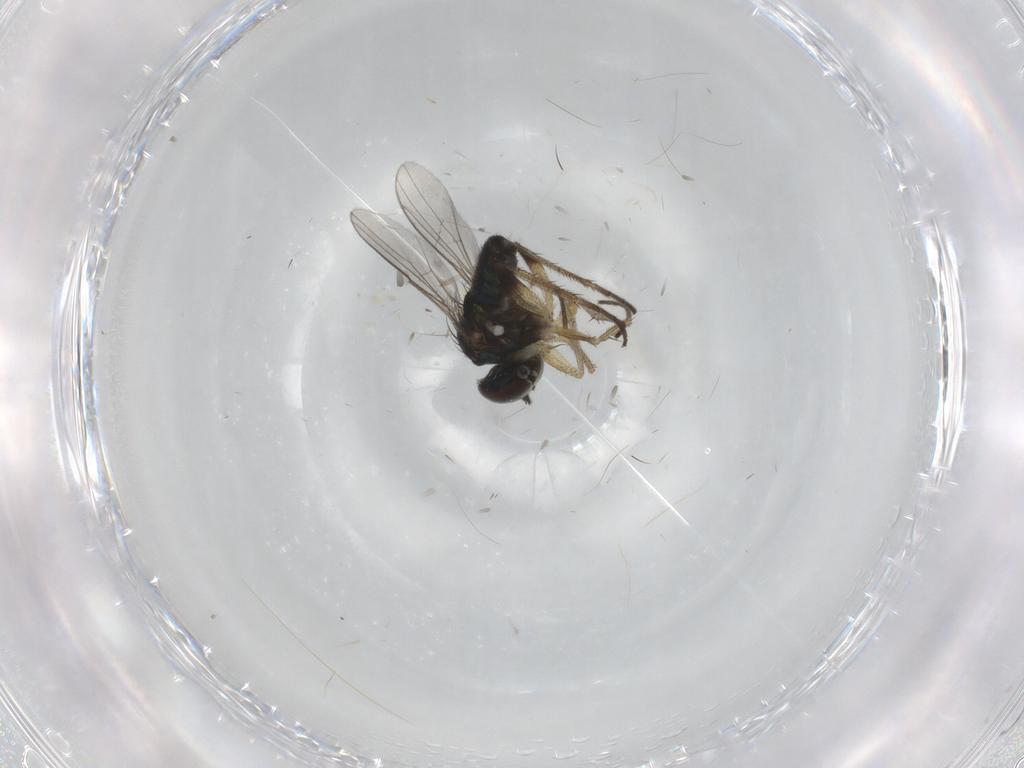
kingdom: Animalia
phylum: Arthropoda
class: Insecta
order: Diptera
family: Dolichopodidae
